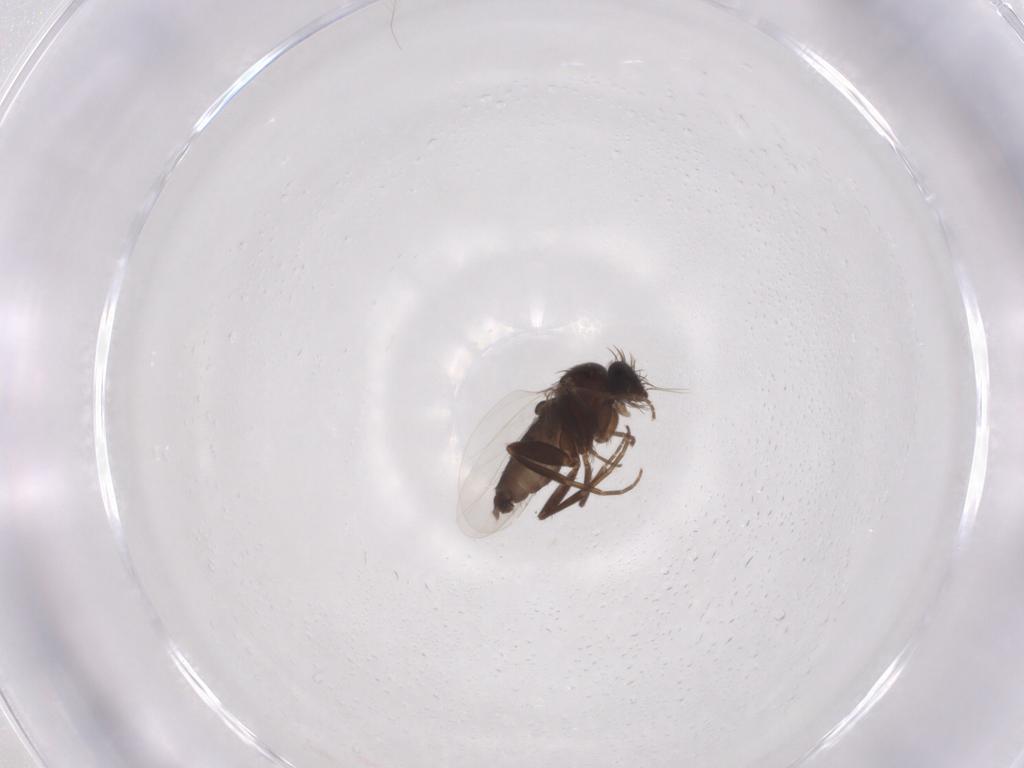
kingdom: Animalia
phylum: Arthropoda
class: Insecta
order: Diptera
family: Phoridae
